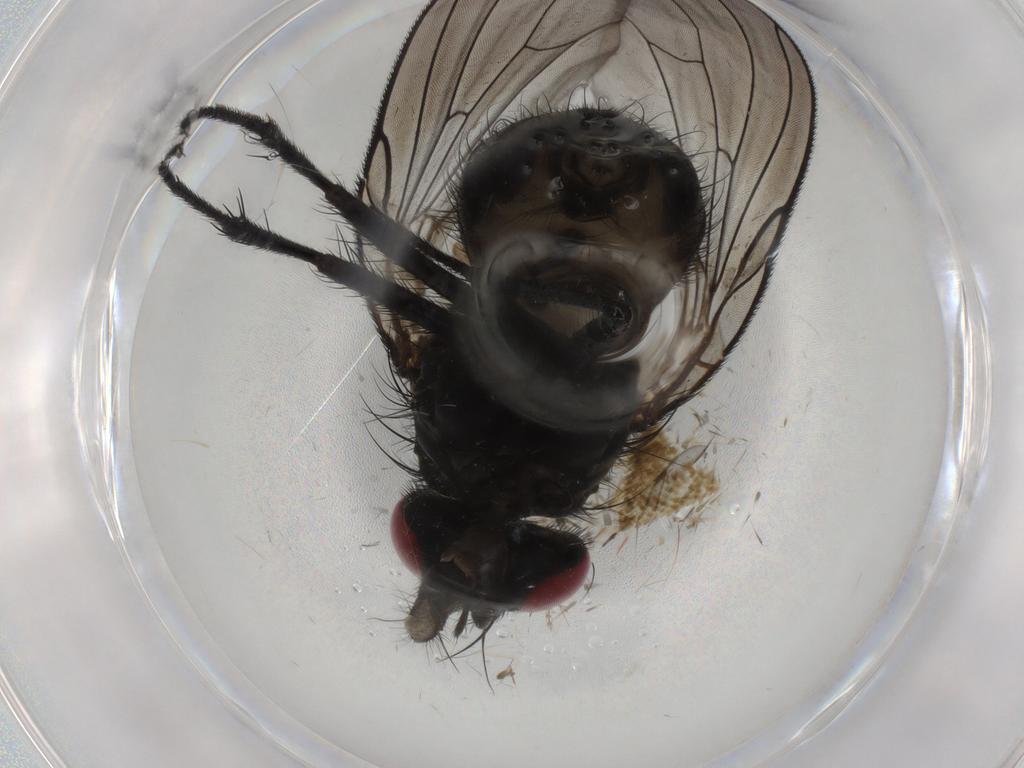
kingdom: Animalia
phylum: Arthropoda
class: Insecta
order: Diptera
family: Fannia
